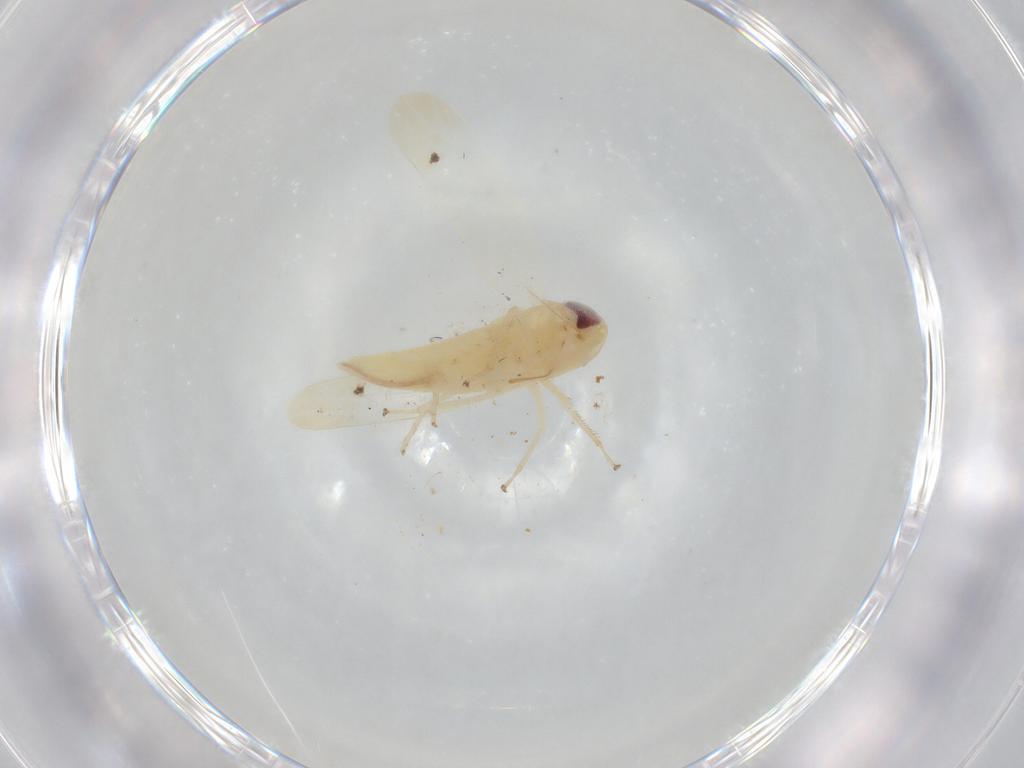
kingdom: Animalia
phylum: Arthropoda
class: Insecta
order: Hemiptera
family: Cicadellidae
